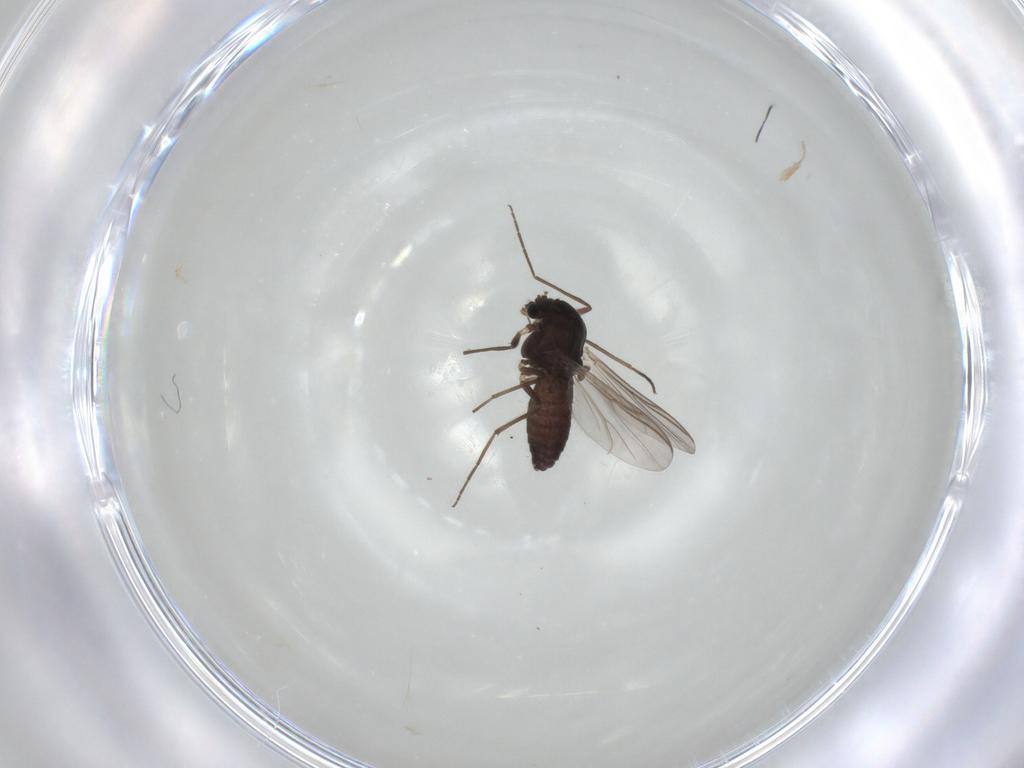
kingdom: Animalia
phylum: Arthropoda
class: Insecta
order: Diptera
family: Chironomidae
